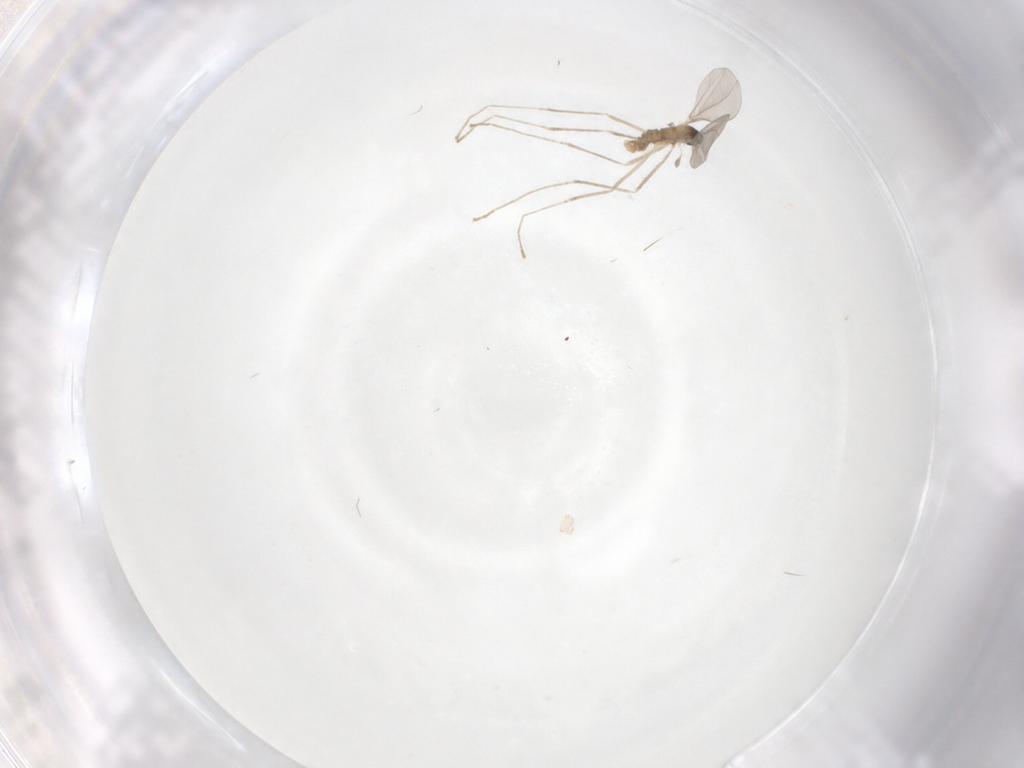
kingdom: Animalia
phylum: Arthropoda
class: Insecta
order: Diptera
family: Cecidomyiidae
